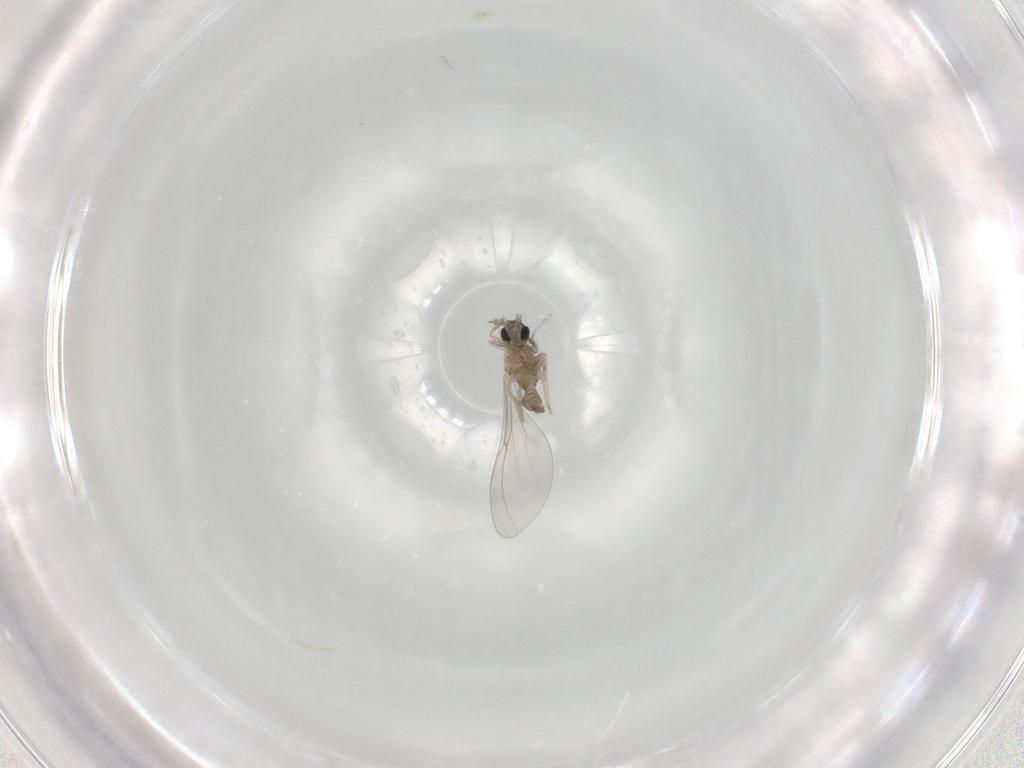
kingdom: Animalia
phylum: Arthropoda
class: Insecta
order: Diptera
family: Cecidomyiidae
